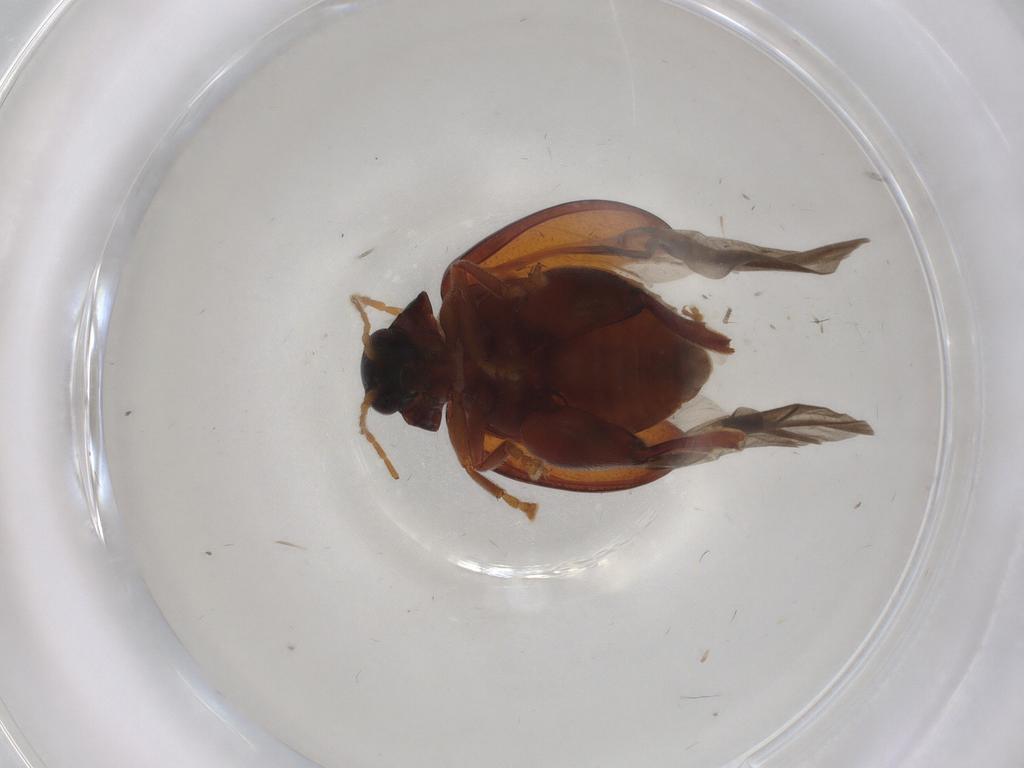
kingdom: Animalia
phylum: Arthropoda
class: Insecta
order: Coleoptera
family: Chrysomelidae
